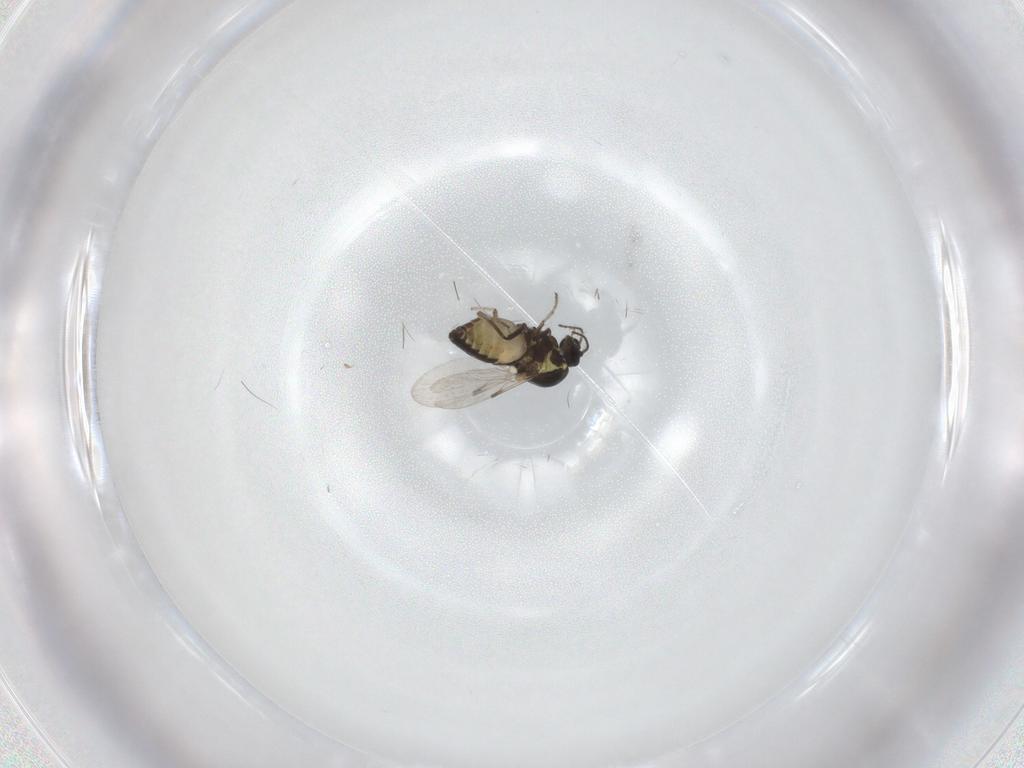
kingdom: Animalia
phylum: Arthropoda
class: Insecta
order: Diptera
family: Ceratopogonidae
